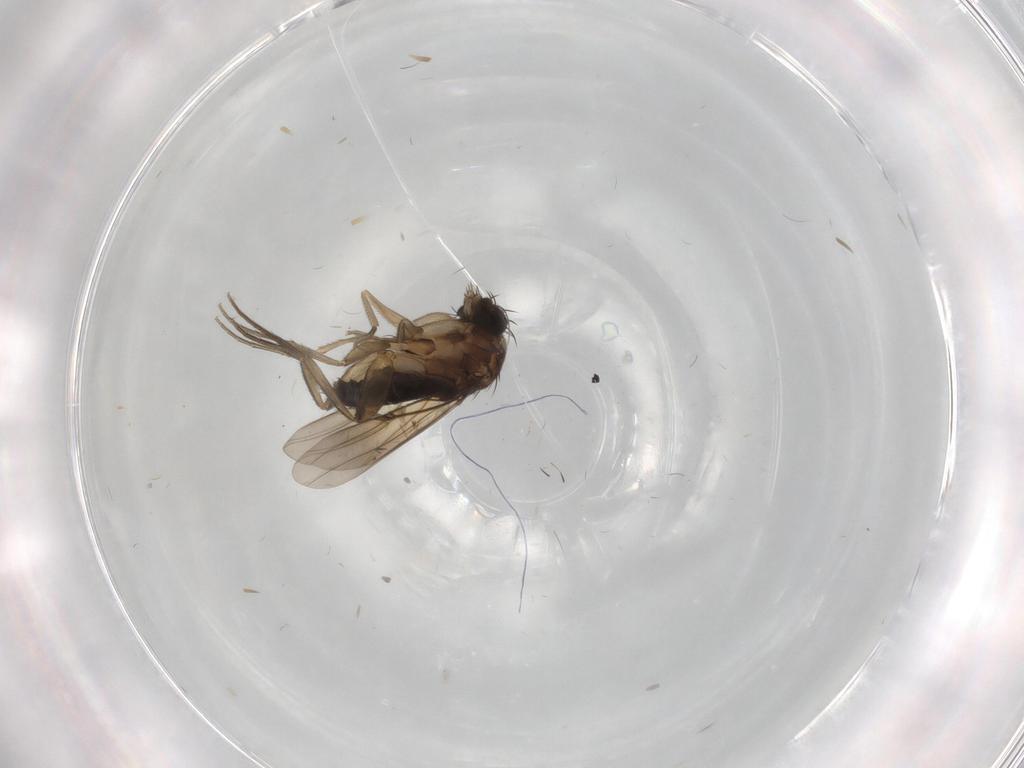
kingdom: Animalia
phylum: Arthropoda
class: Insecta
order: Diptera
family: Phoridae
